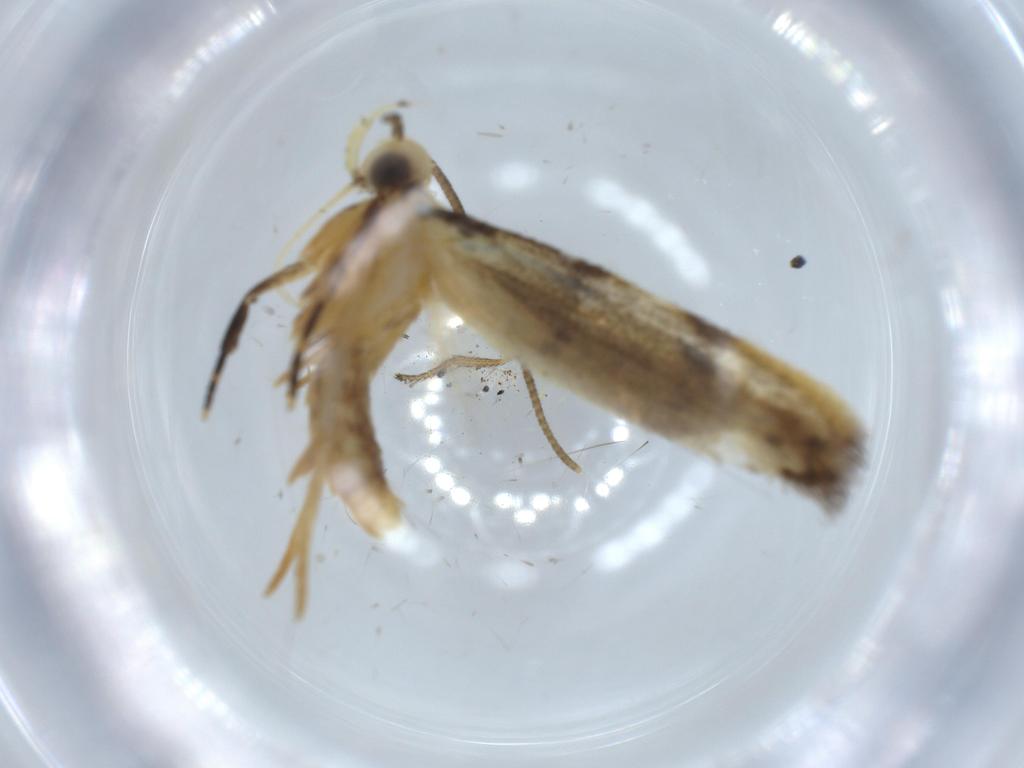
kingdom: Animalia
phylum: Arthropoda
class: Insecta
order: Lepidoptera
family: Autostichidae
